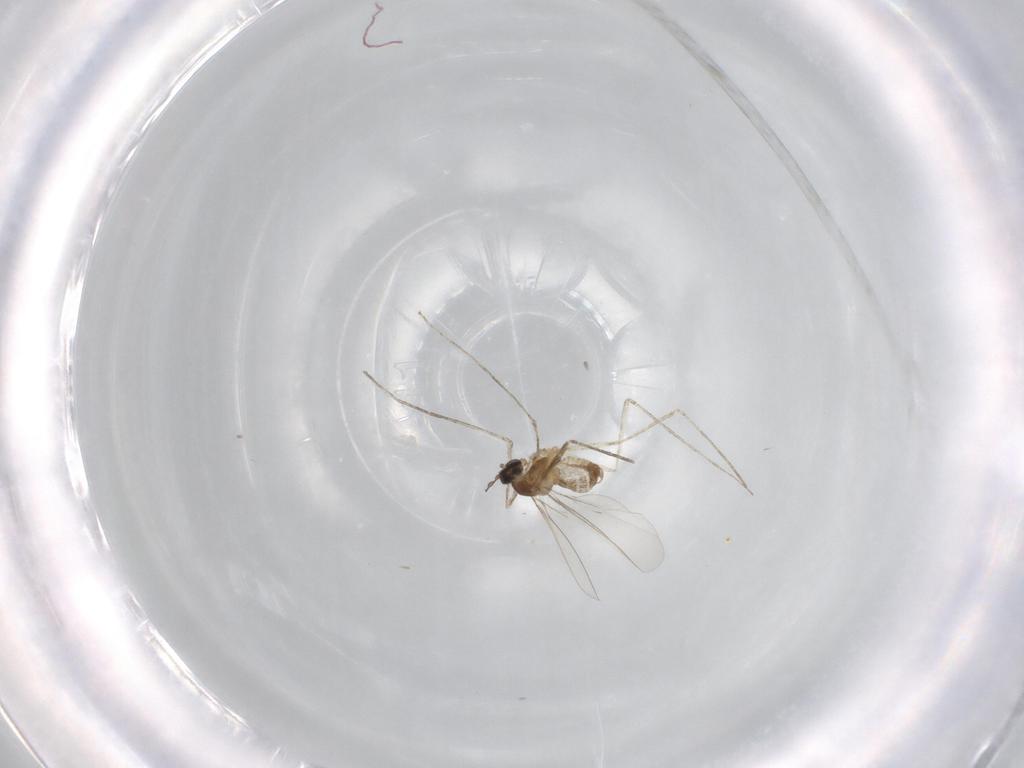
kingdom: Animalia
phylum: Arthropoda
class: Insecta
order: Diptera
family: Cecidomyiidae
